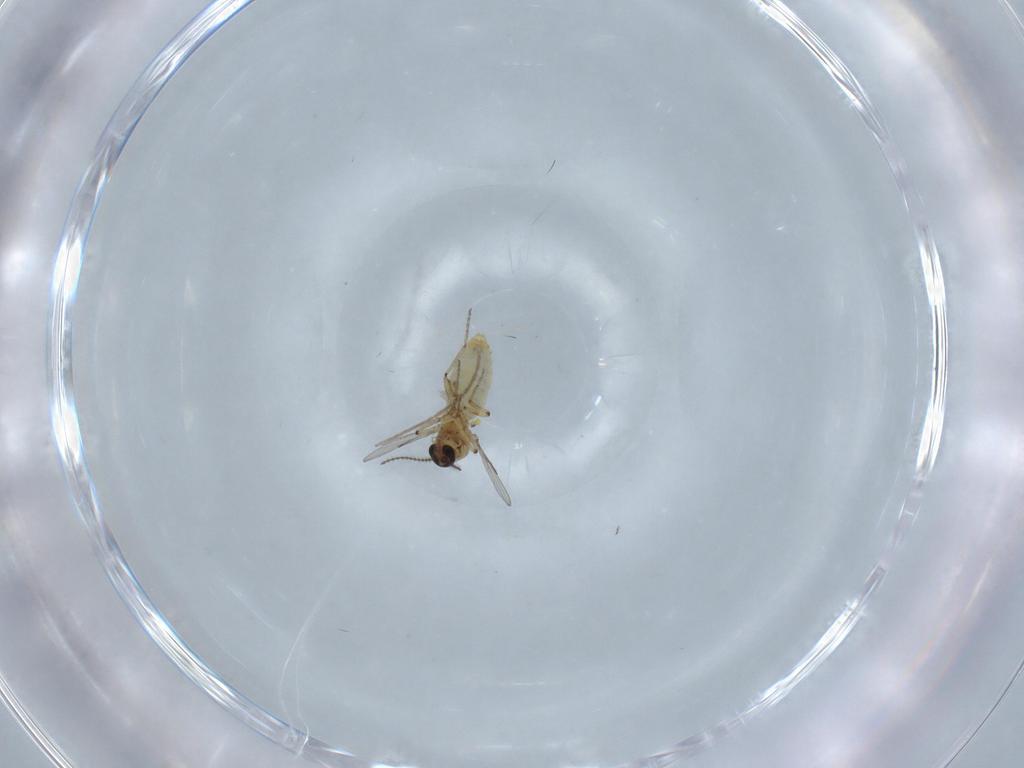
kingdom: Animalia
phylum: Arthropoda
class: Insecta
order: Diptera
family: Ceratopogonidae
